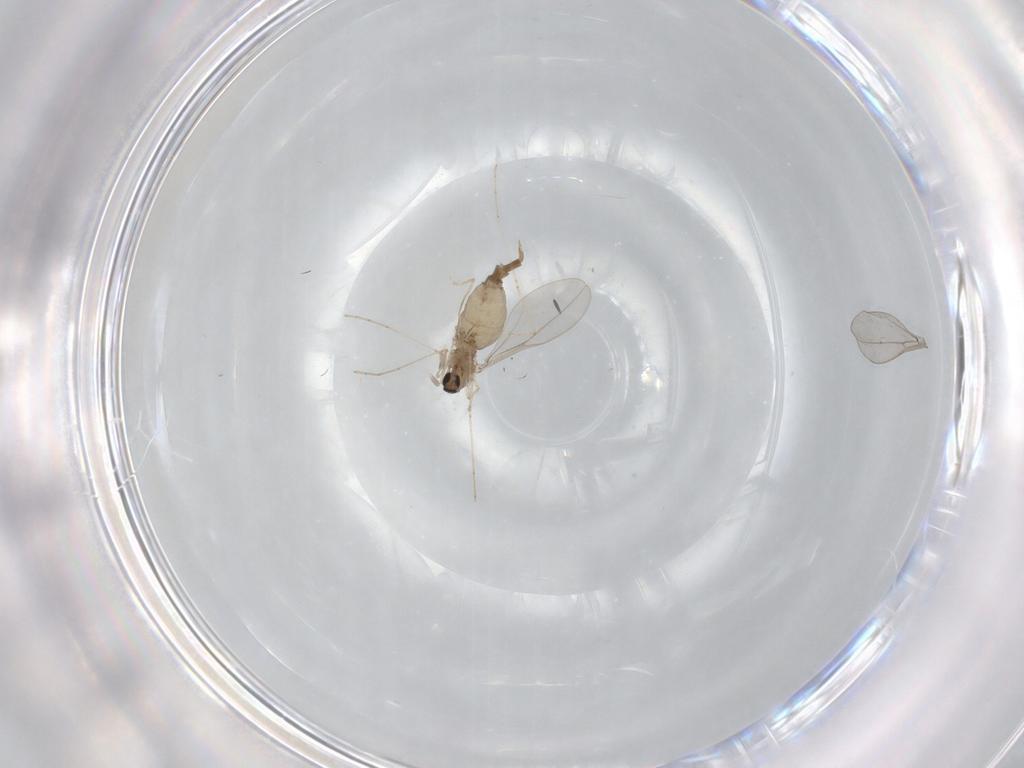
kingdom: Animalia
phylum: Arthropoda
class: Insecta
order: Diptera
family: Cecidomyiidae
